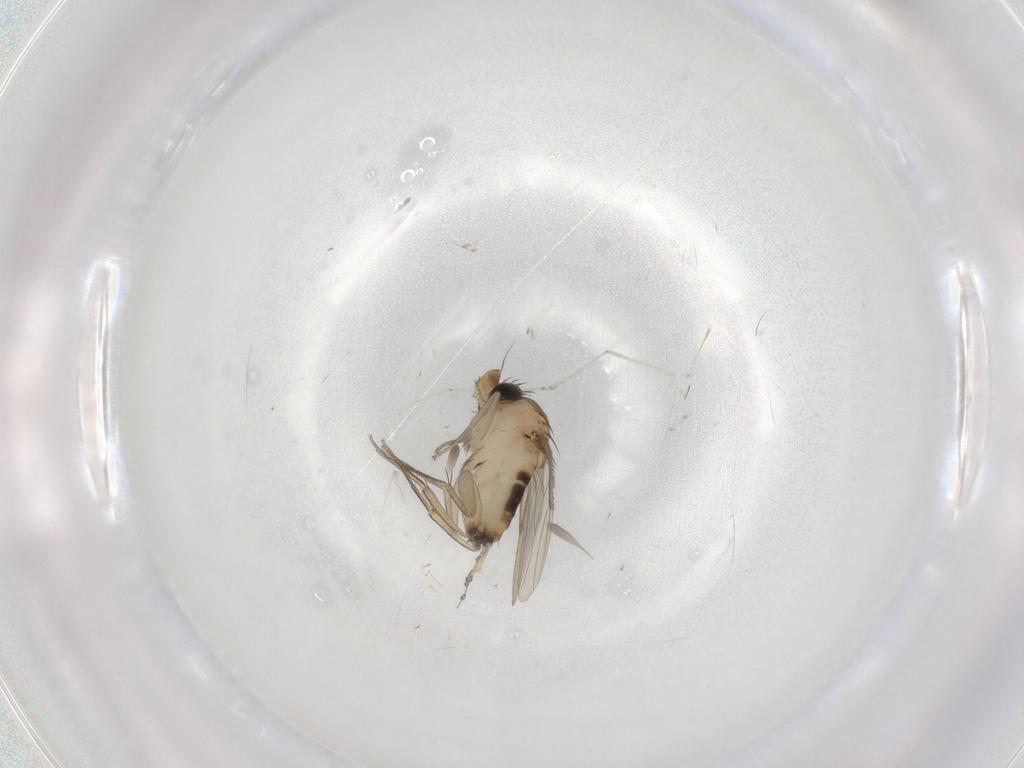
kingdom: Animalia
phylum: Arthropoda
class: Insecta
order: Diptera
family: Phoridae
